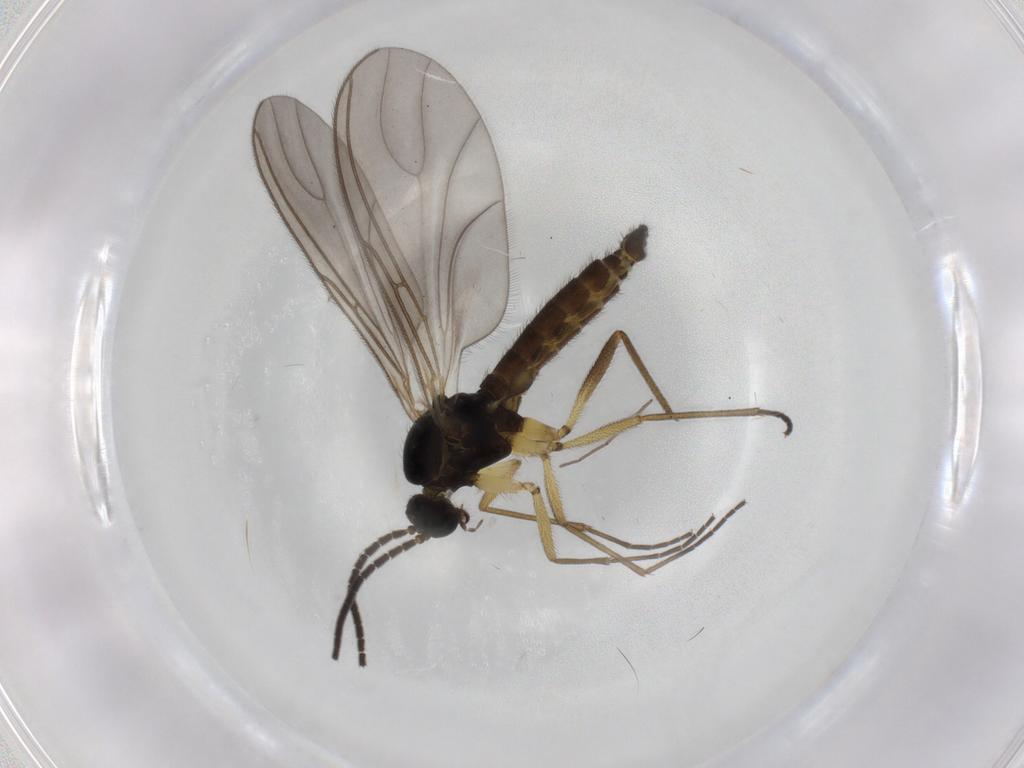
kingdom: Animalia
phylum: Arthropoda
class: Insecta
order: Diptera
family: Sciaridae
